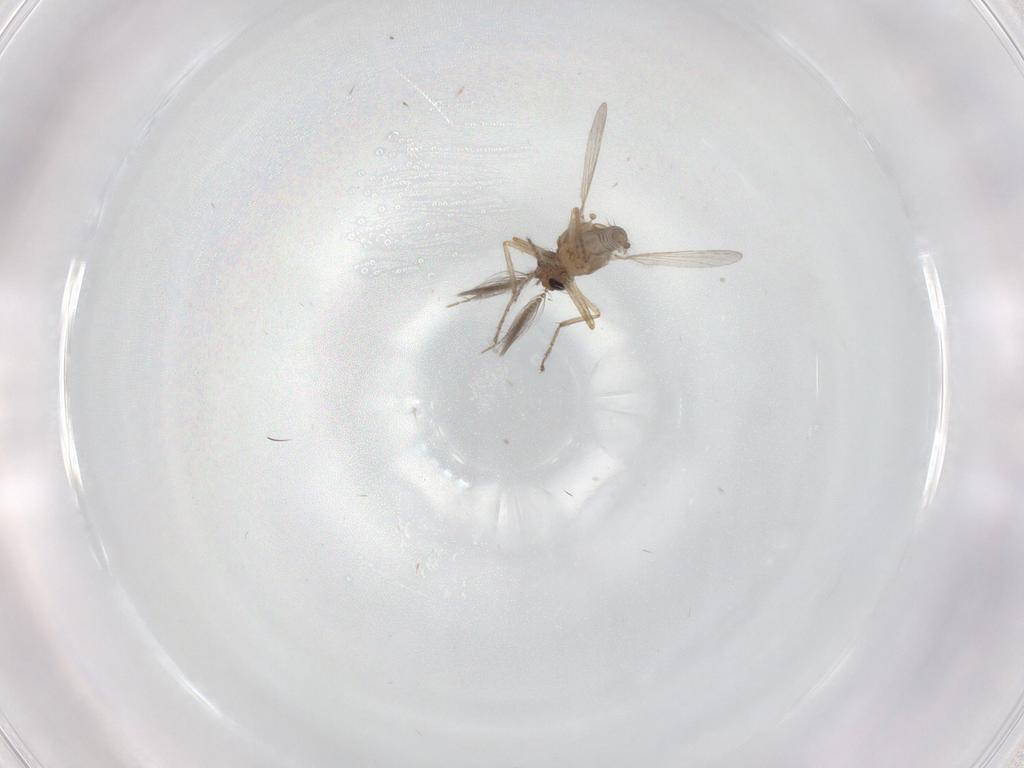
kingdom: Animalia
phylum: Arthropoda
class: Insecta
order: Diptera
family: Ceratopogonidae
